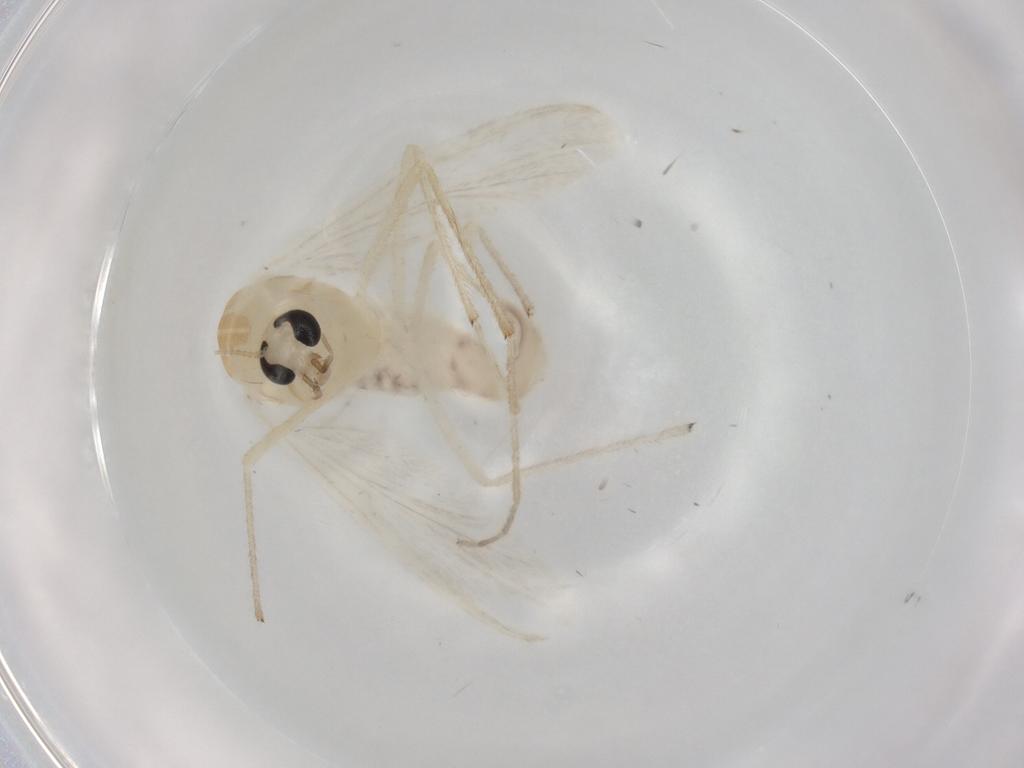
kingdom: Animalia
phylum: Arthropoda
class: Insecta
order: Diptera
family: Chironomidae
